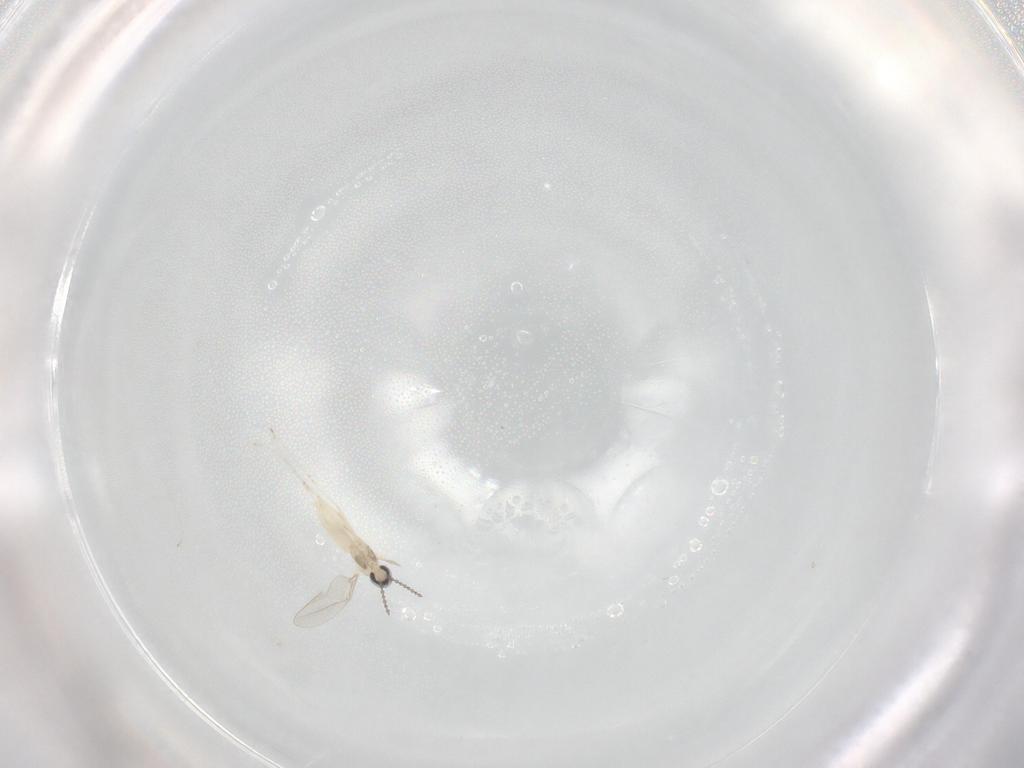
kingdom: Animalia
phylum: Arthropoda
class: Insecta
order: Diptera
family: Cecidomyiidae
